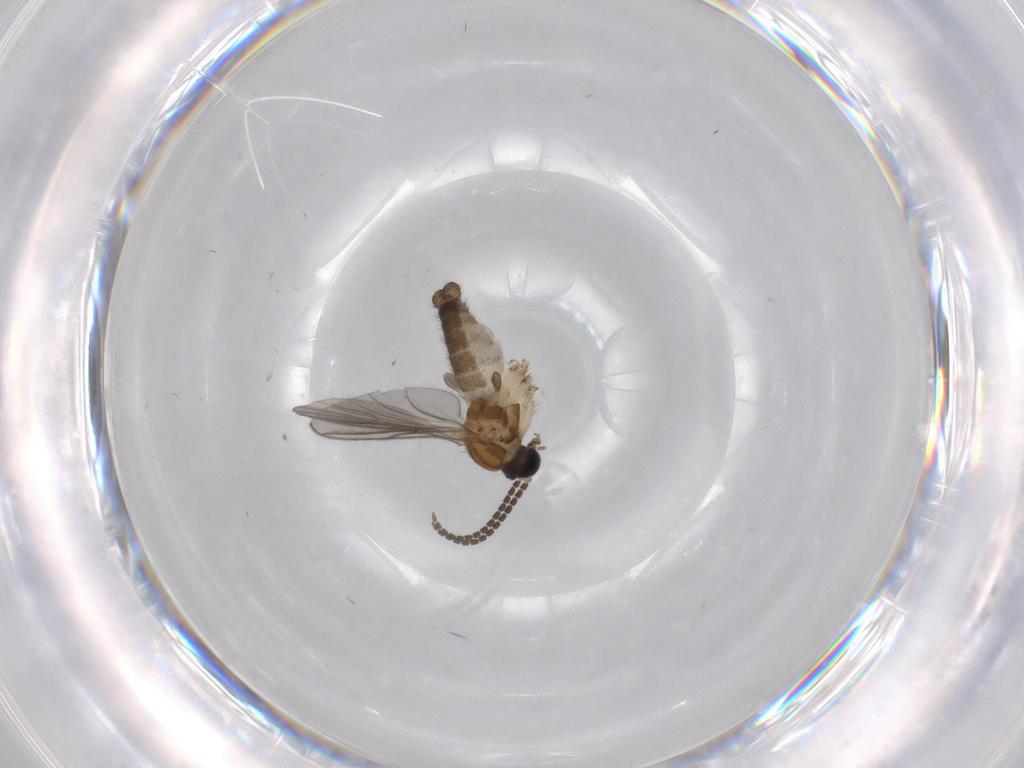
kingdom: Animalia
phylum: Arthropoda
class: Insecta
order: Diptera
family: Sciaridae
